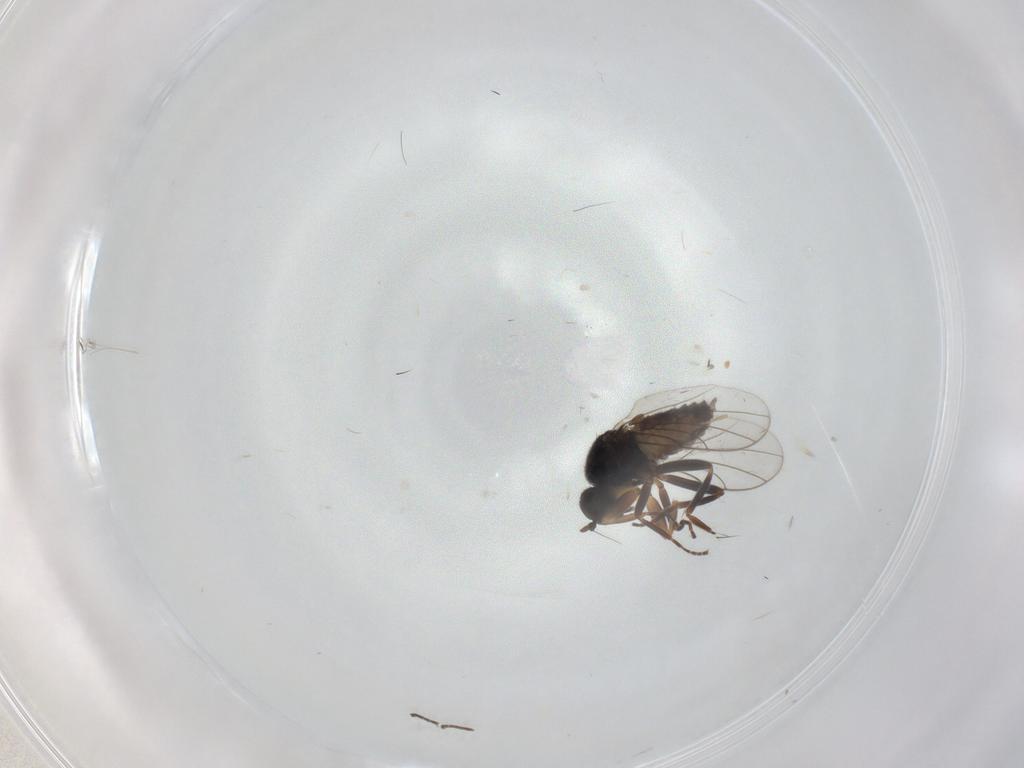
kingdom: Animalia
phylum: Arthropoda
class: Insecta
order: Diptera
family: Hybotidae
